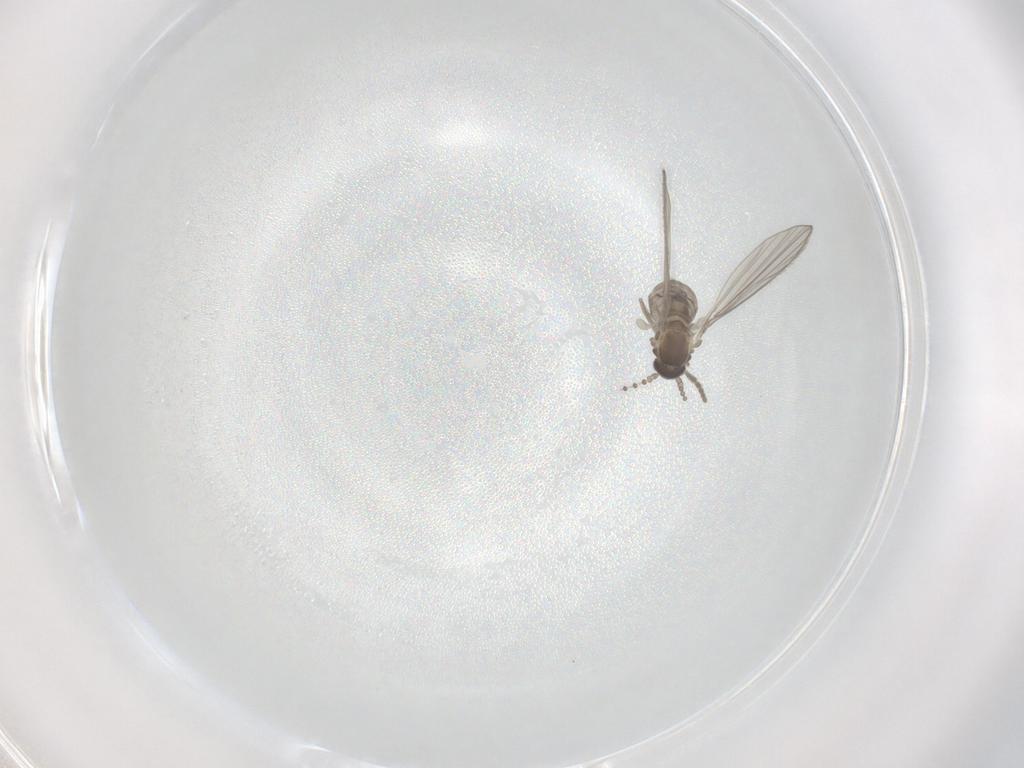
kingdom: Animalia
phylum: Arthropoda
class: Insecta
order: Diptera
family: Psychodidae
